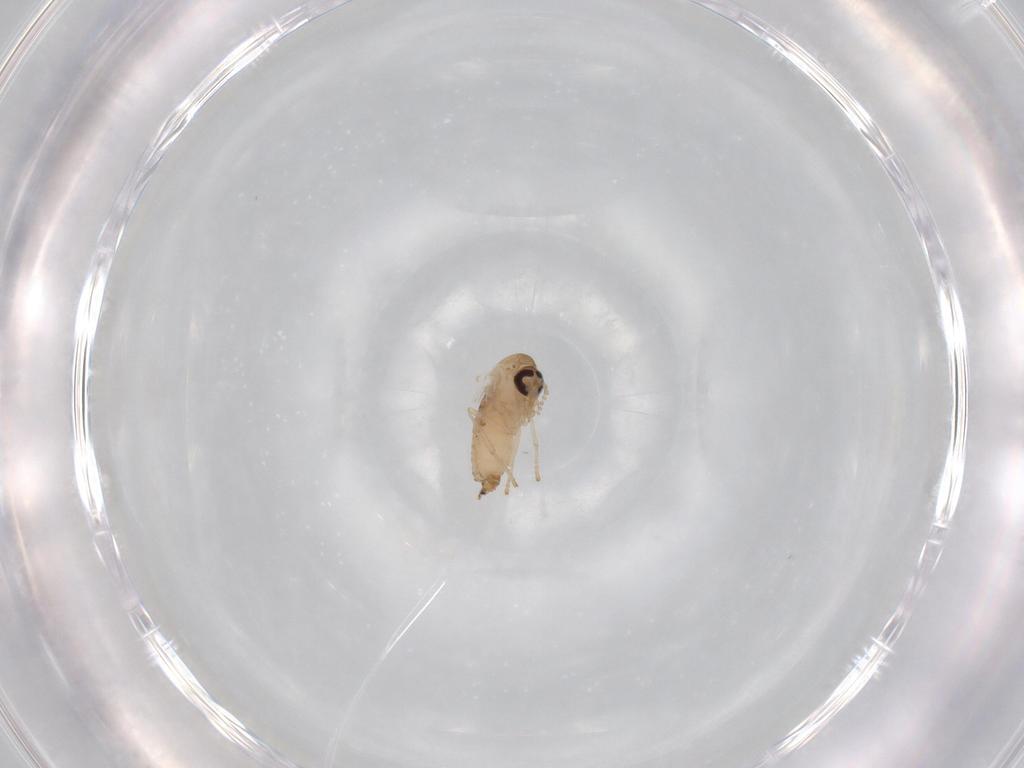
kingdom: Animalia
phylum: Arthropoda
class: Insecta
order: Diptera
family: Psychodidae
